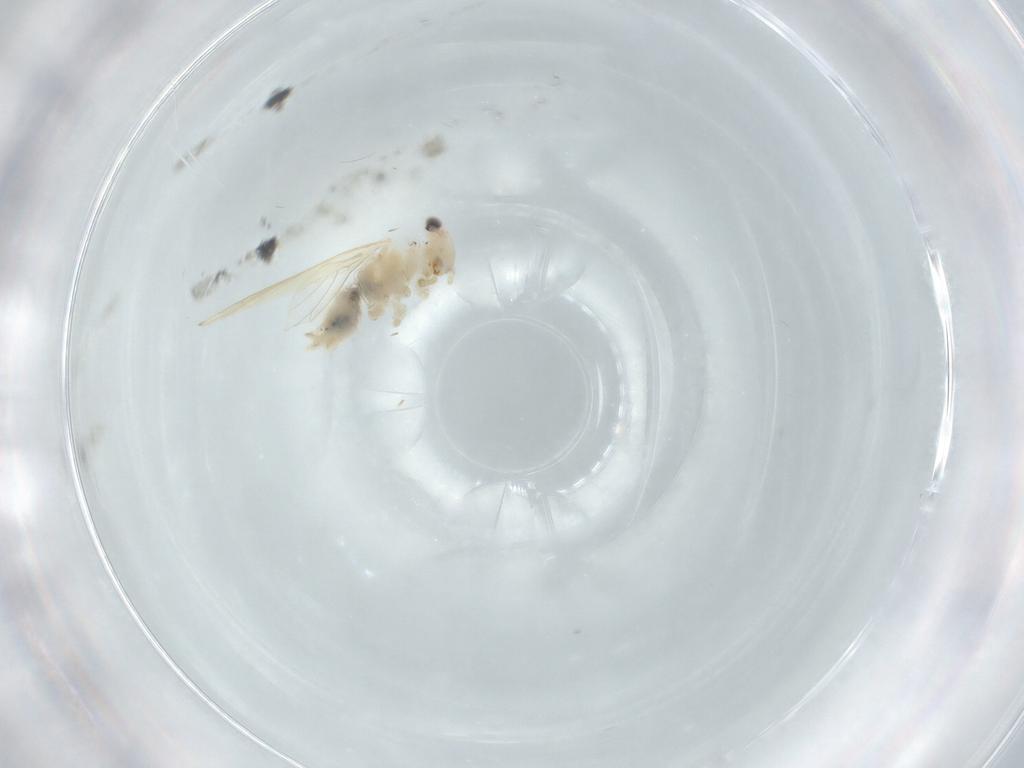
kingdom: Animalia
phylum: Arthropoda
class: Insecta
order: Psocodea
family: Lepidopsocidae
